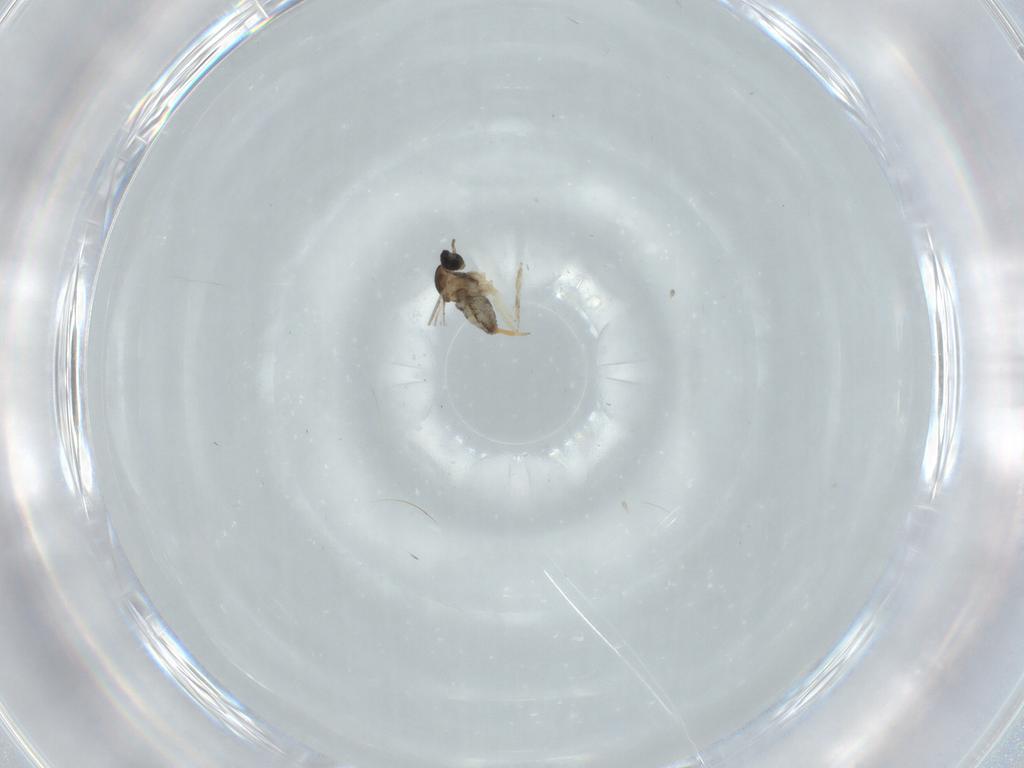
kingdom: Animalia
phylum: Arthropoda
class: Insecta
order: Diptera
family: Cecidomyiidae
